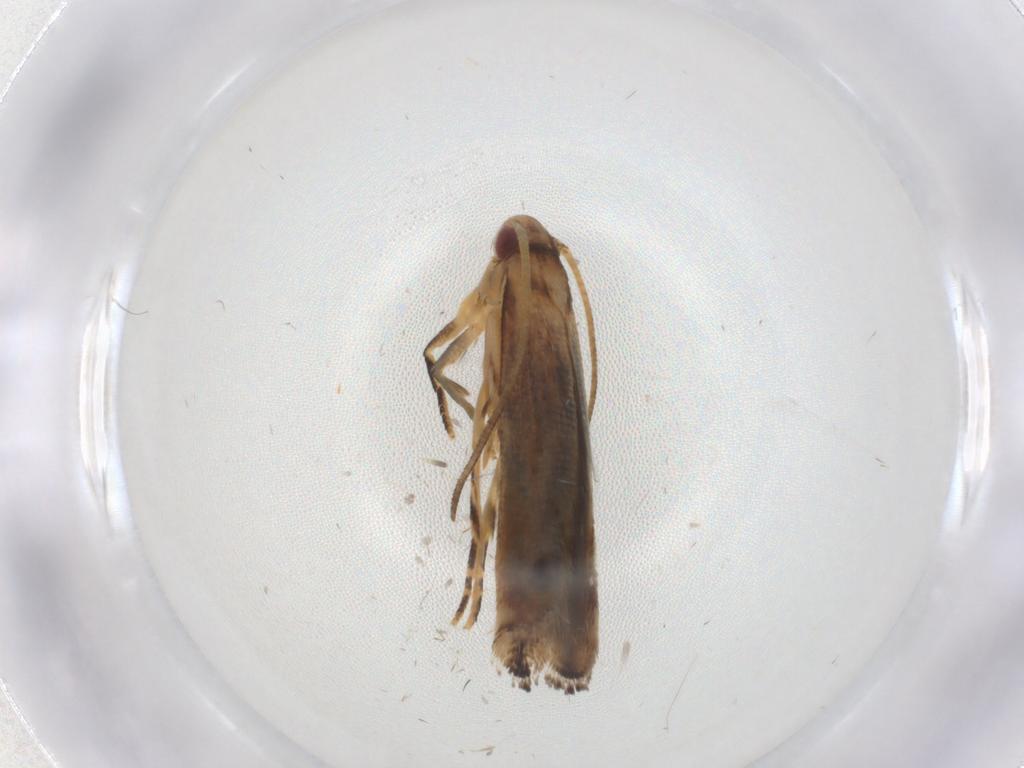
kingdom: Animalia
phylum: Arthropoda
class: Insecta
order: Lepidoptera
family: Momphidae
